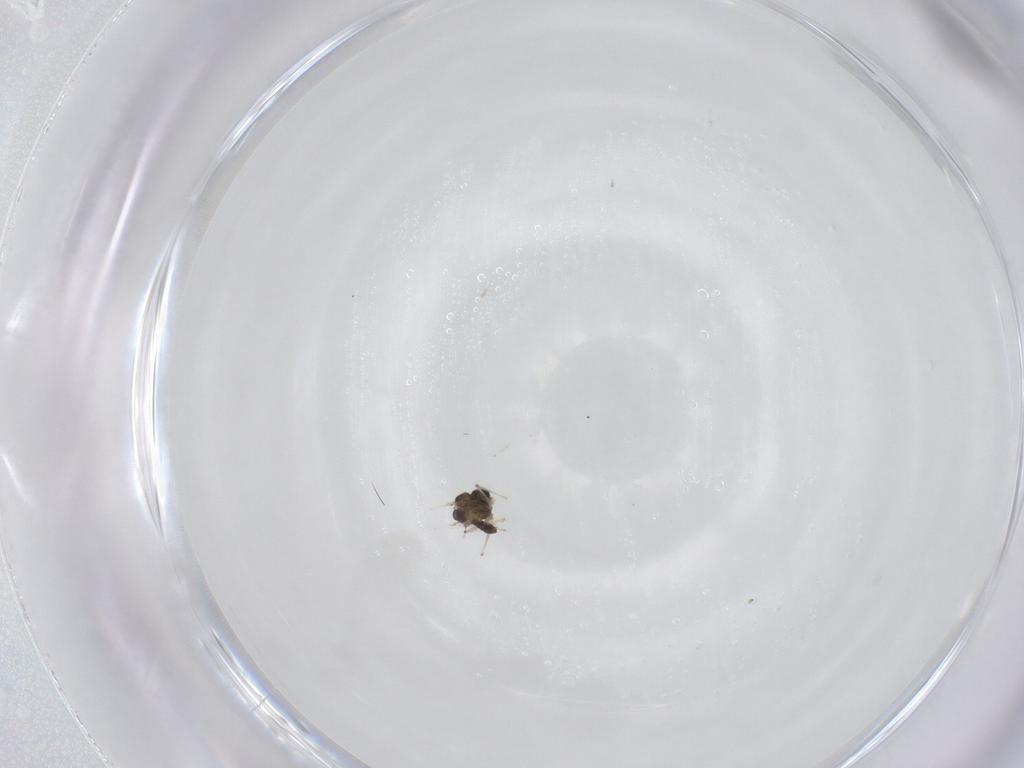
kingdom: Animalia
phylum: Arthropoda
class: Insecta
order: Diptera
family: Chironomidae
